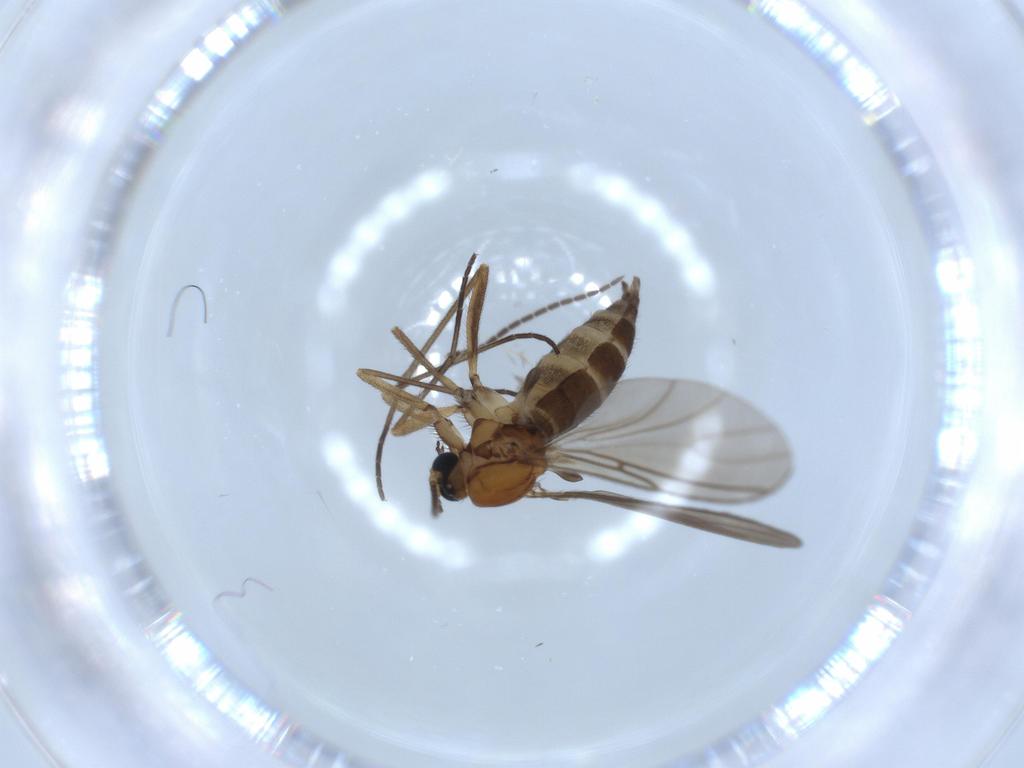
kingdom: Animalia
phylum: Arthropoda
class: Insecta
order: Diptera
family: Sciaridae
